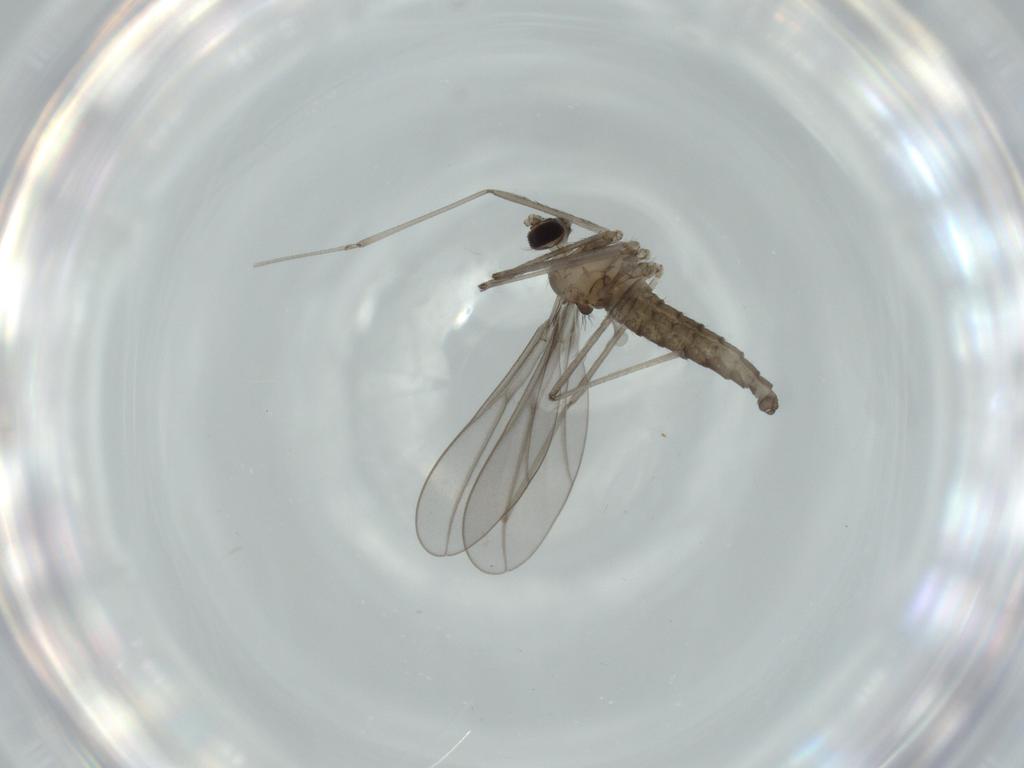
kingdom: Animalia
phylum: Arthropoda
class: Insecta
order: Diptera
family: Cecidomyiidae
